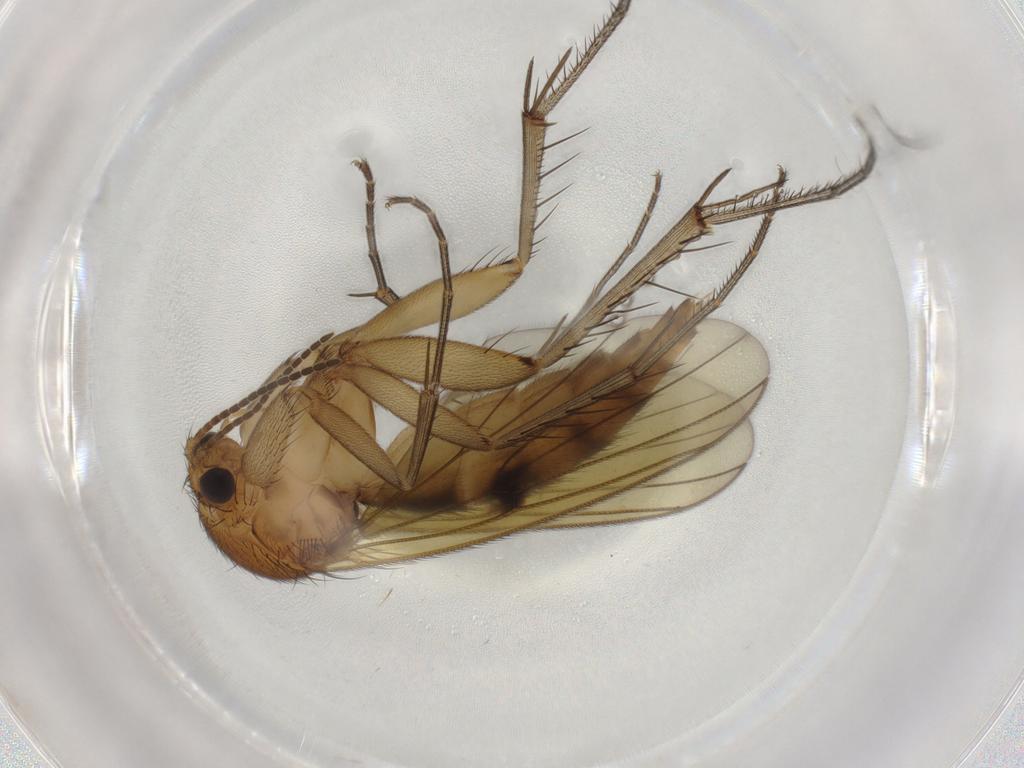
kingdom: Animalia
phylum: Arthropoda
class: Insecta
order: Diptera
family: Mycetophilidae
